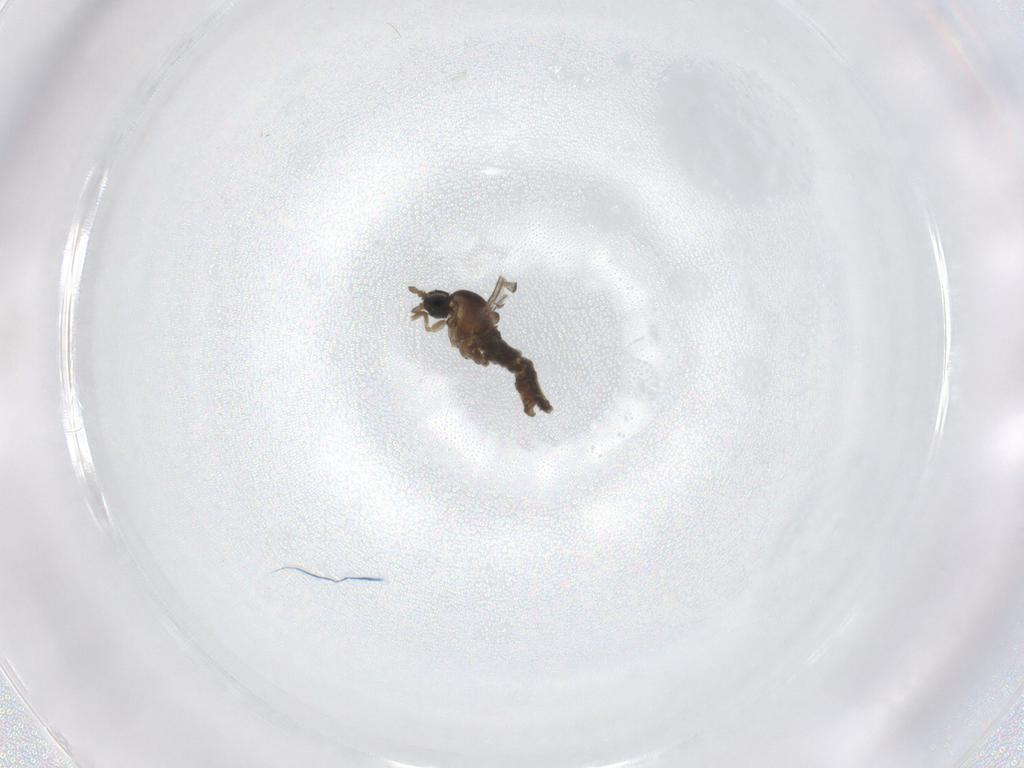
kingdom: Animalia
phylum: Arthropoda
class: Insecta
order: Diptera
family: Cecidomyiidae
